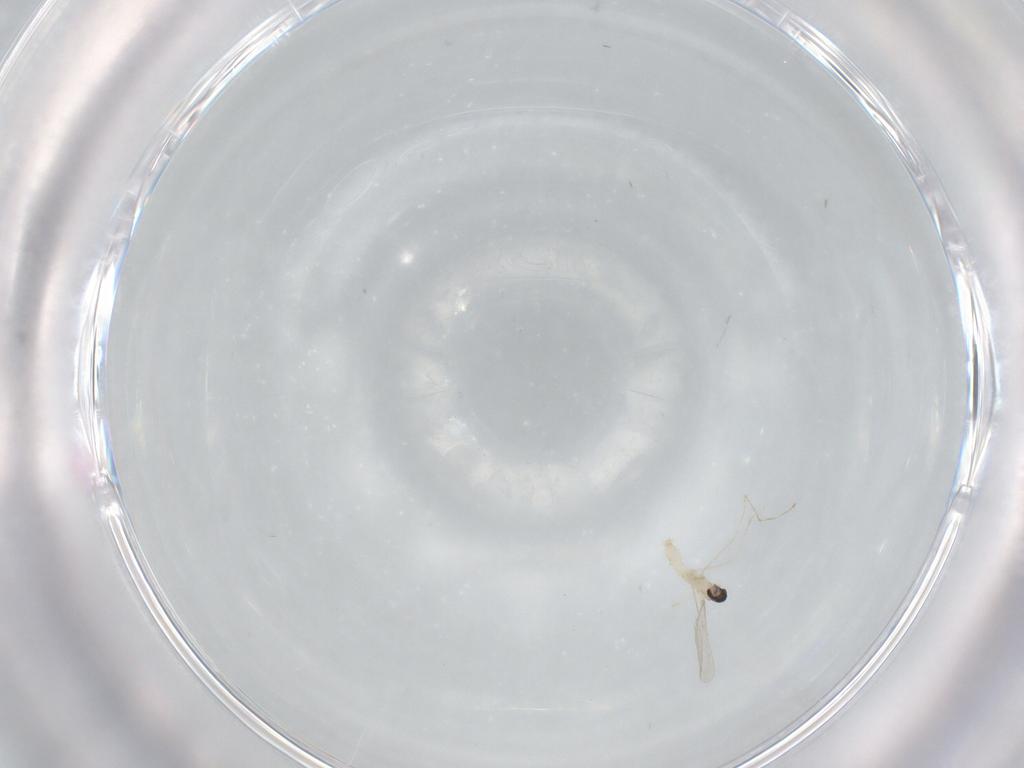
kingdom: Animalia
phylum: Arthropoda
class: Insecta
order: Diptera
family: Cecidomyiidae
